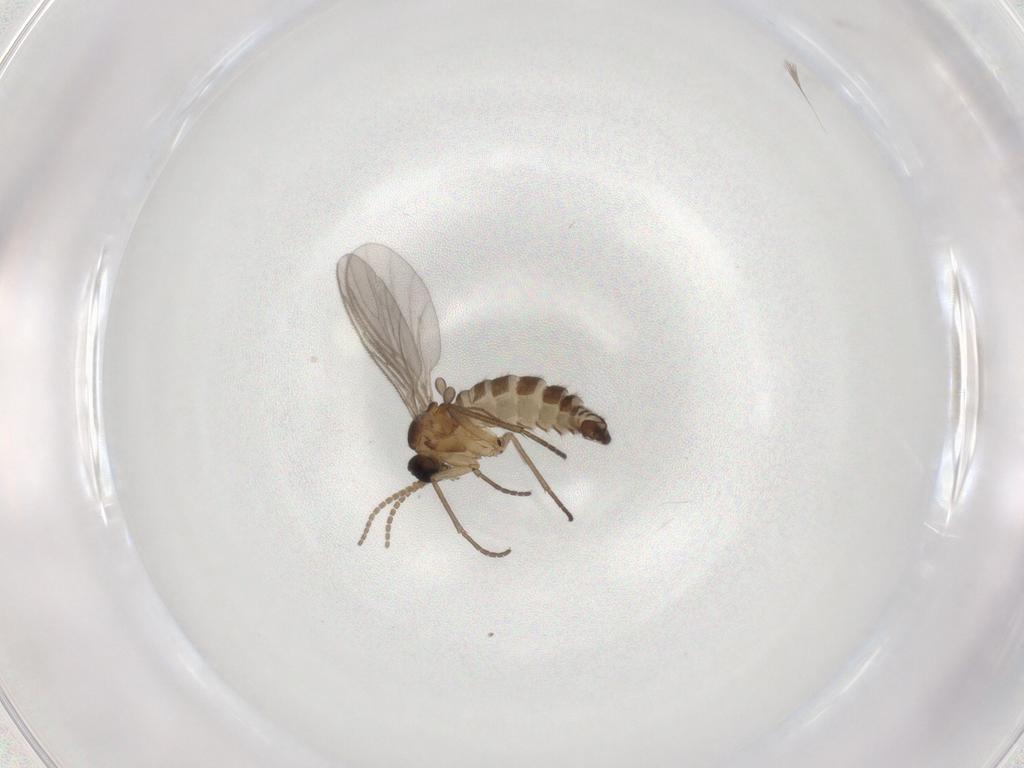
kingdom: Animalia
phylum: Arthropoda
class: Insecta
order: Diptera
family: Sciaridae
